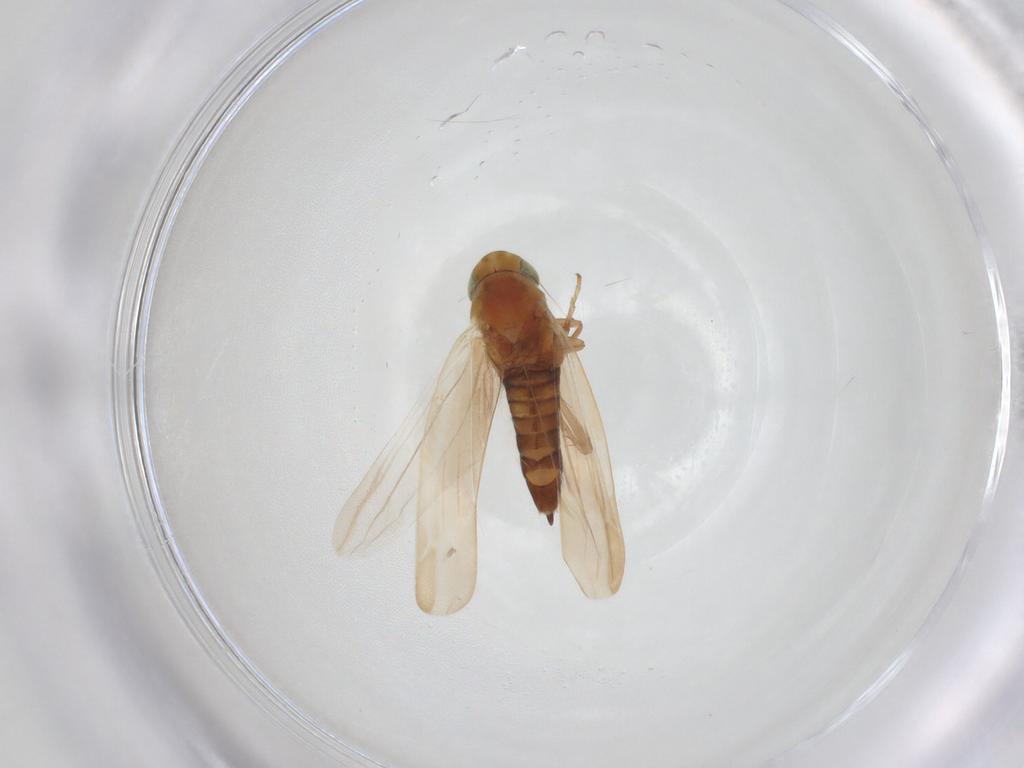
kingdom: Animalia
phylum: Arthropoda
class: Insecta
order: Hemiptera
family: Cicadellidae
